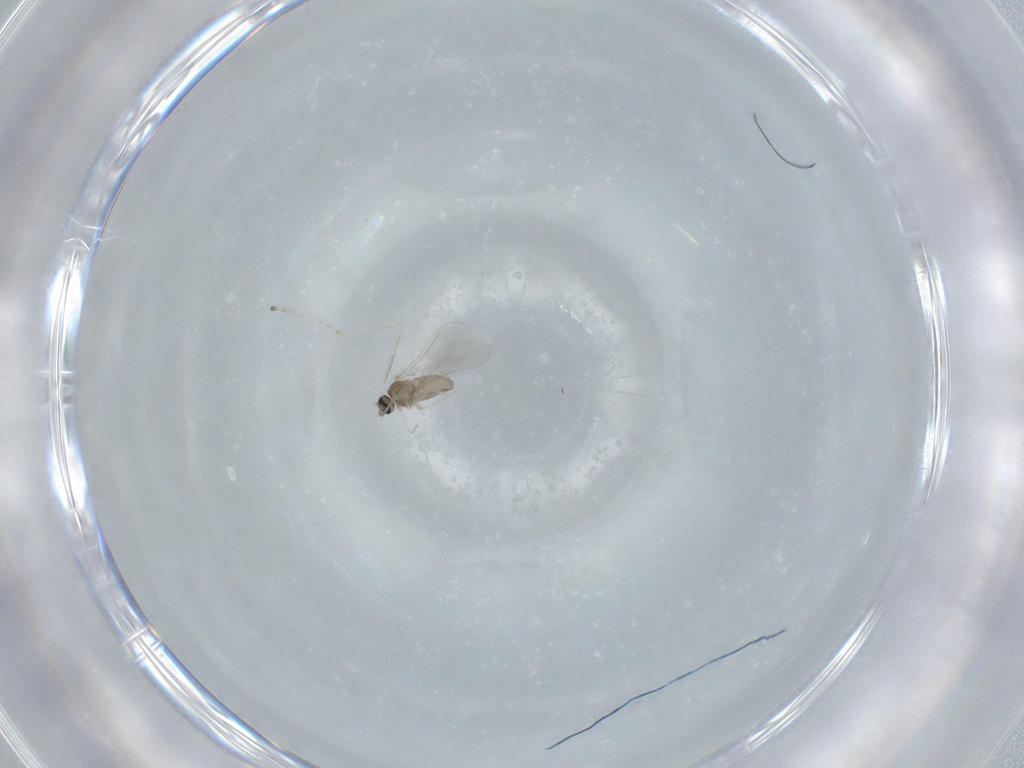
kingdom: Animalia
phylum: Arthropoda
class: Insecta
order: Diptera
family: Cecidomyiidae
